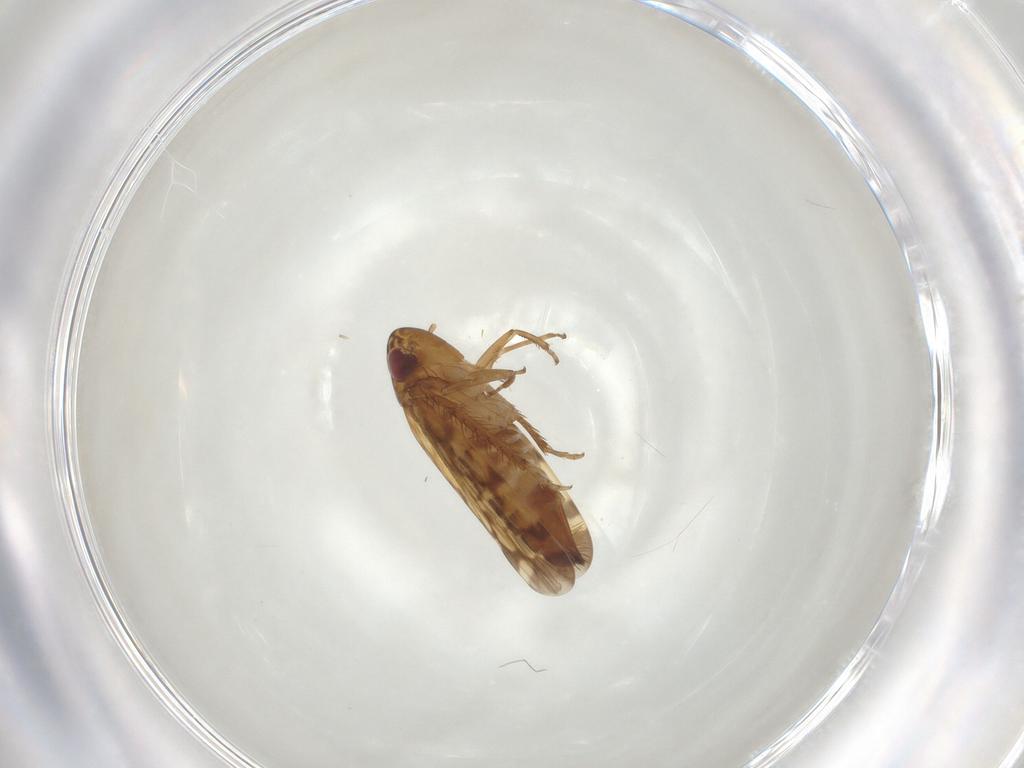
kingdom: Animalia
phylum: Arthropoda
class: Insecta
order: Hemiptera
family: Cicadellidae
